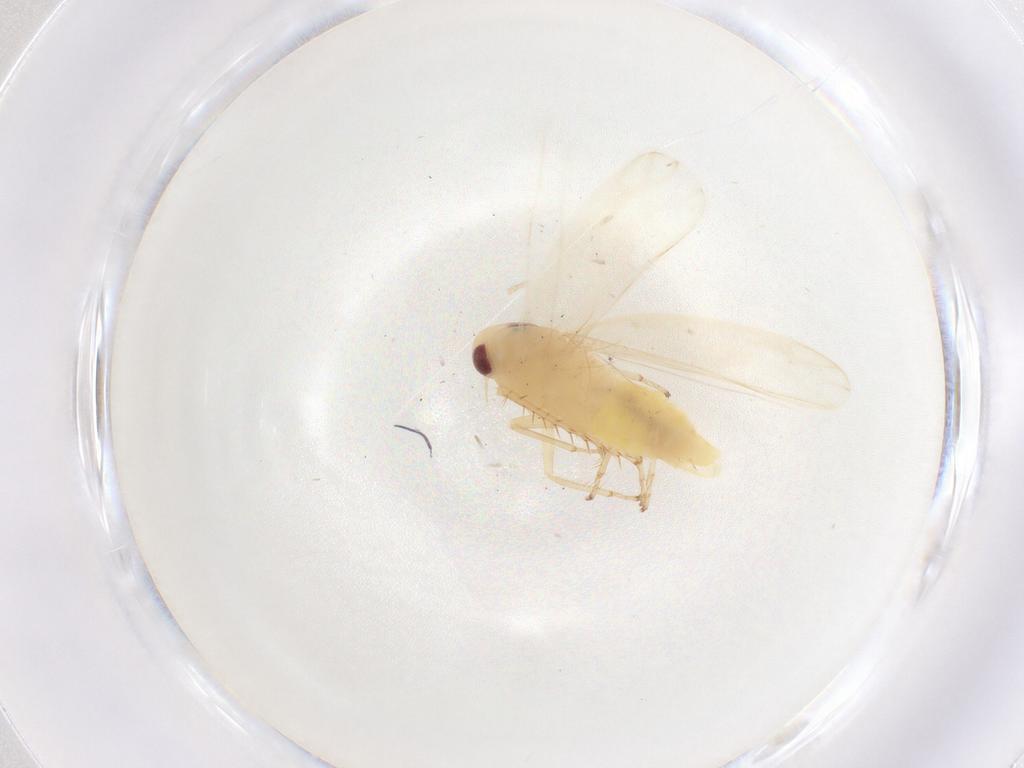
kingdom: Animalia
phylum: Arthropoda
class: Insecta
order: Hemiptera
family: Cicadellidae
